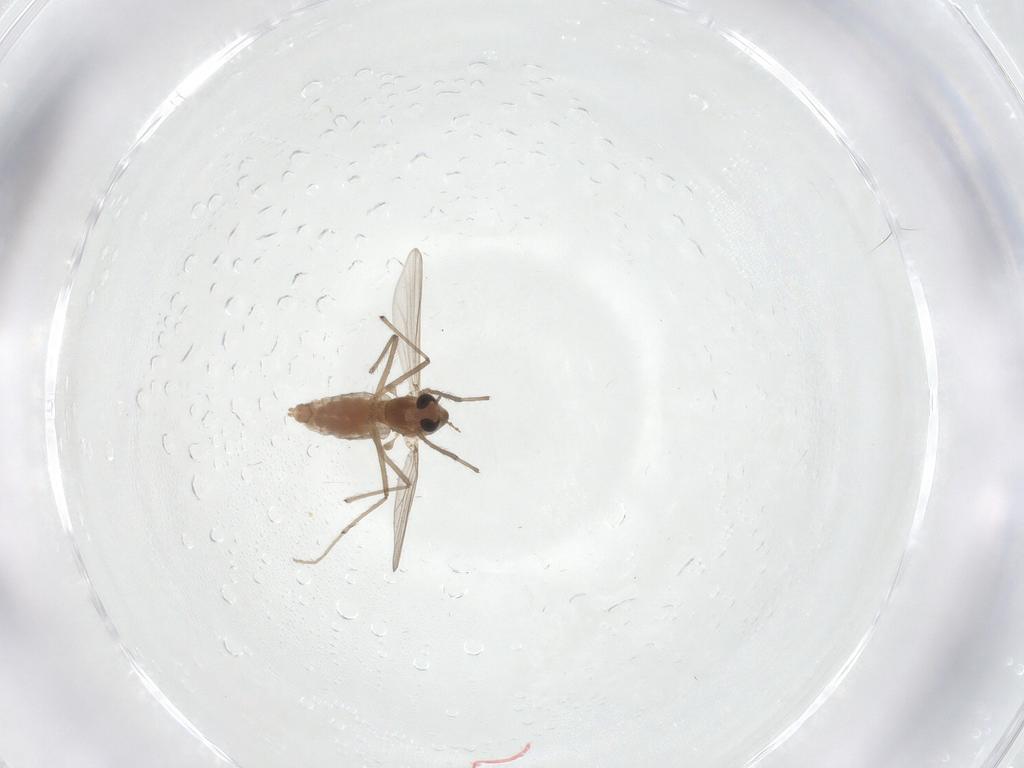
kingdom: Animalia
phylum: Arthropoda
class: Insecta
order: Diptera
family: Chironomidae
